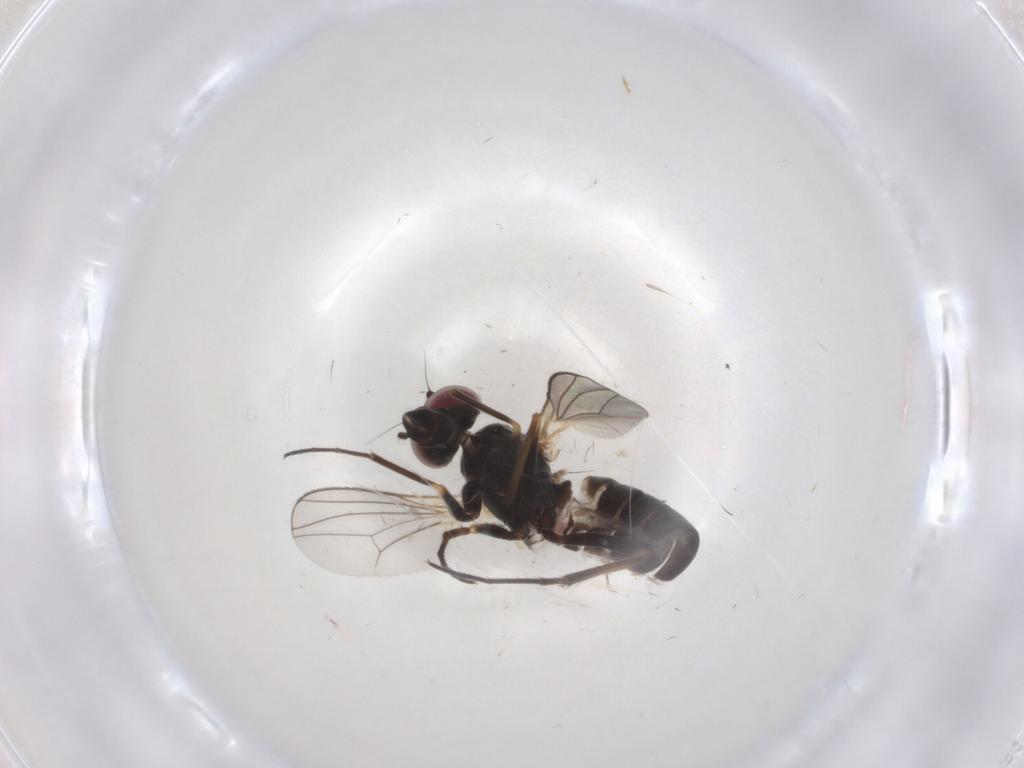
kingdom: Animalia
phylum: Arthropoda
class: Insecta
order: Diptera
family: Dolichopodidae
